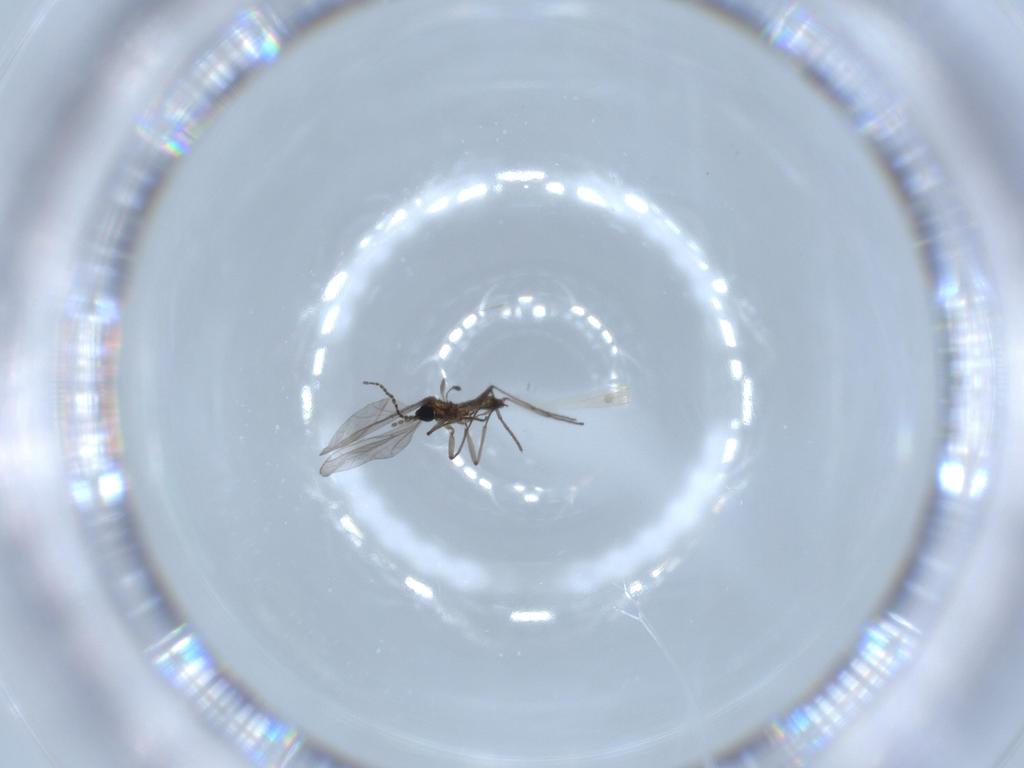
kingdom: Animalia
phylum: Arthropoda
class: Insecta
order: Diptera
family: Sciaridae
